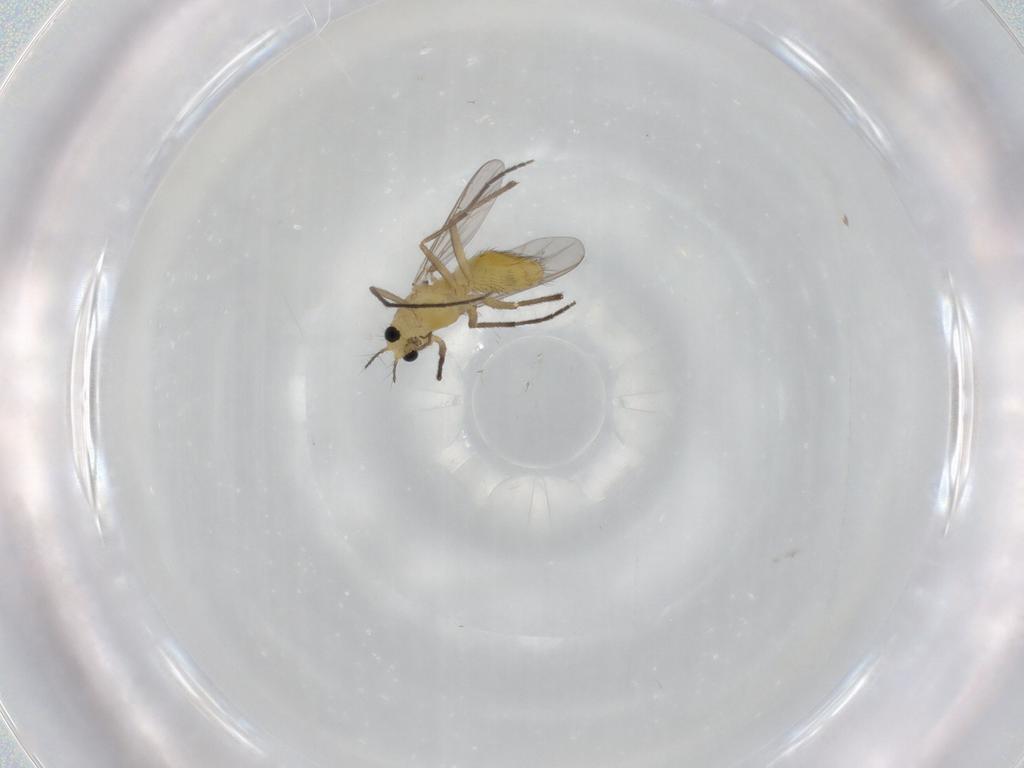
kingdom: Animalia
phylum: Arthropoda
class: Insecta
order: Diptera
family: Chironomidae
